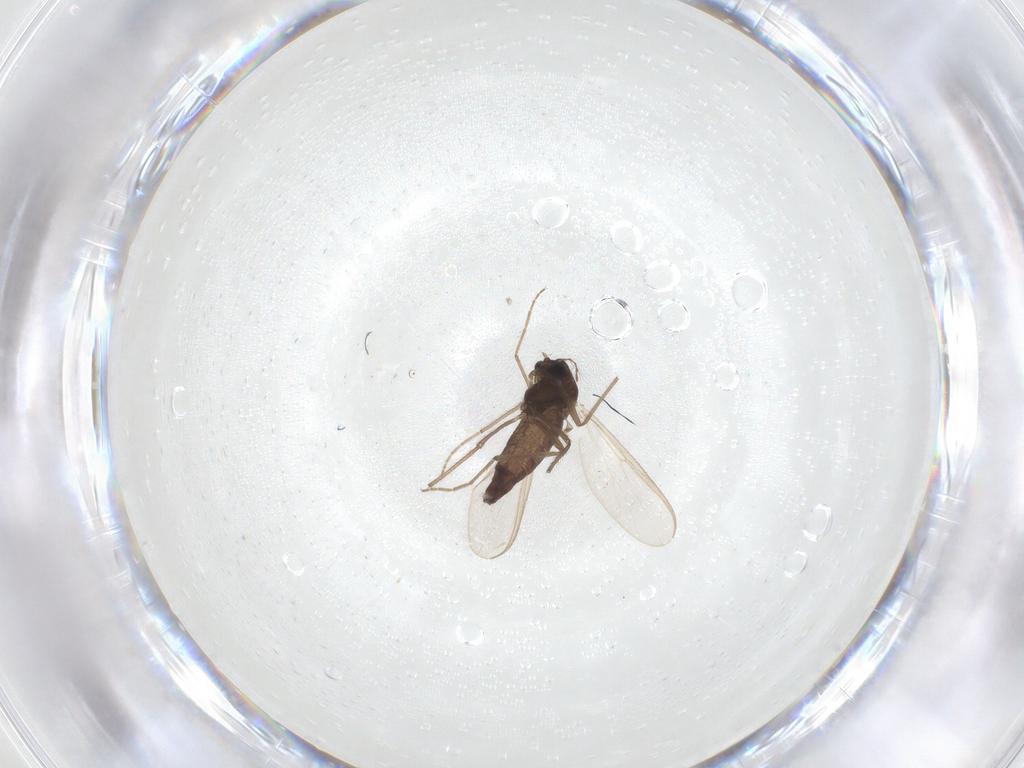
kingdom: Animalia
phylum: Arthropoda
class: Insecta
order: Diptera
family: Chironomidae
